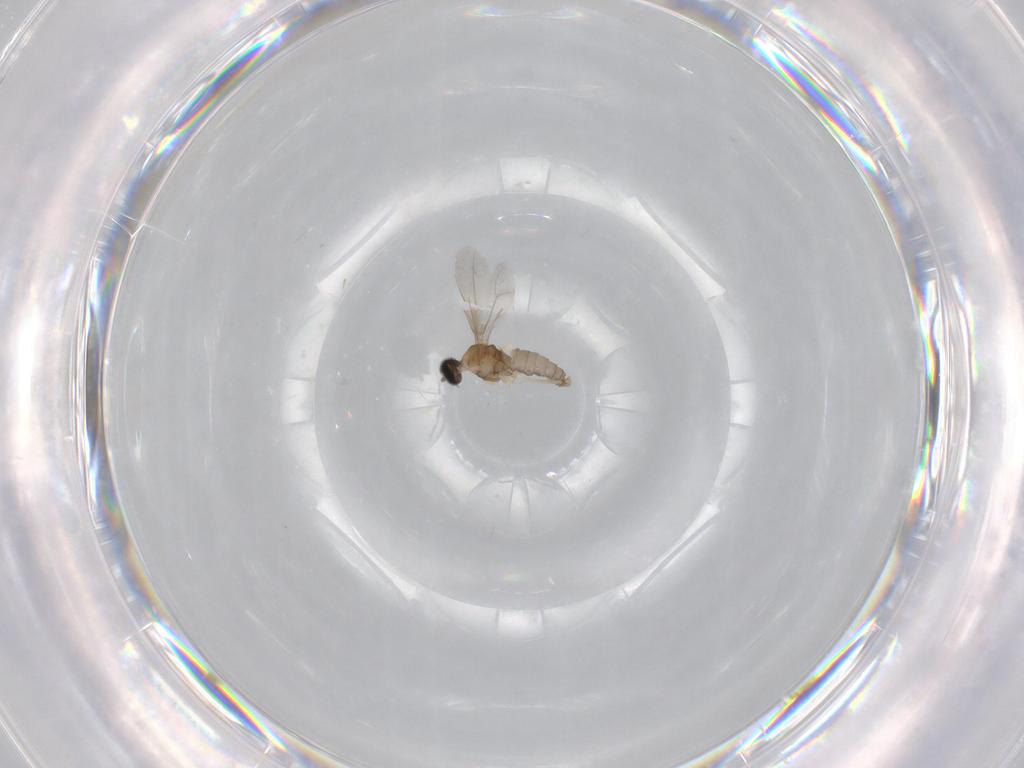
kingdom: Animalia
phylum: Arthropoda
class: Insecta
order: Diptera
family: Cecidomyiidae
